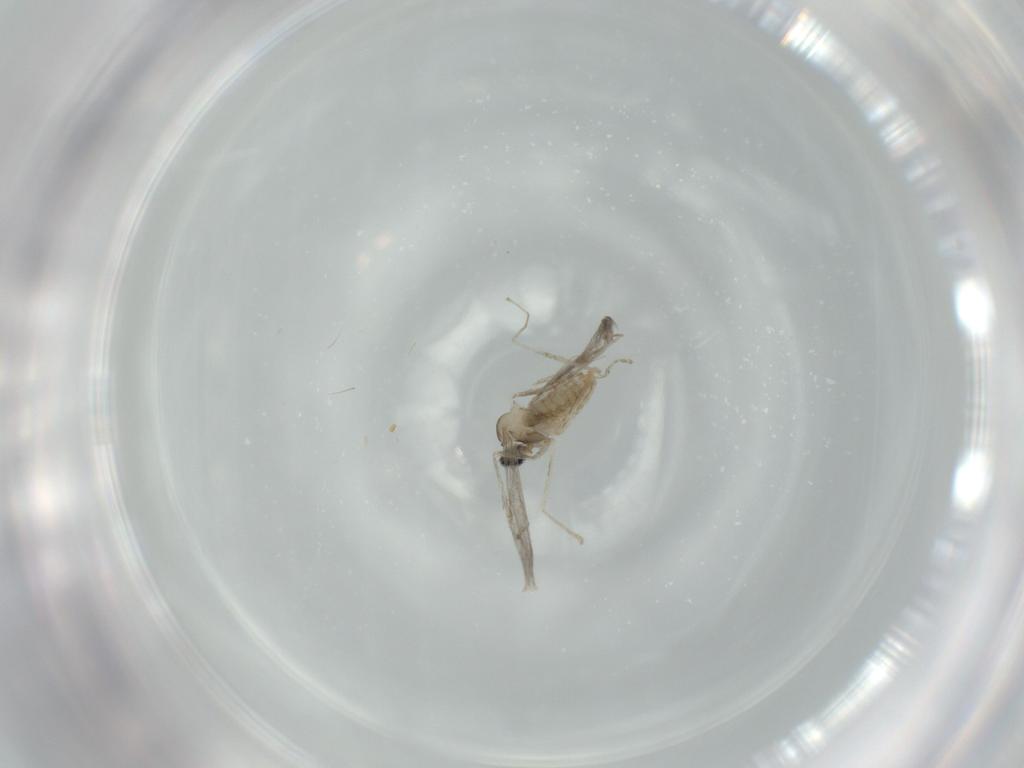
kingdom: Animalia
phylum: Arthropoda
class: Insecta
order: Diptera
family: Cecidomyiidae
